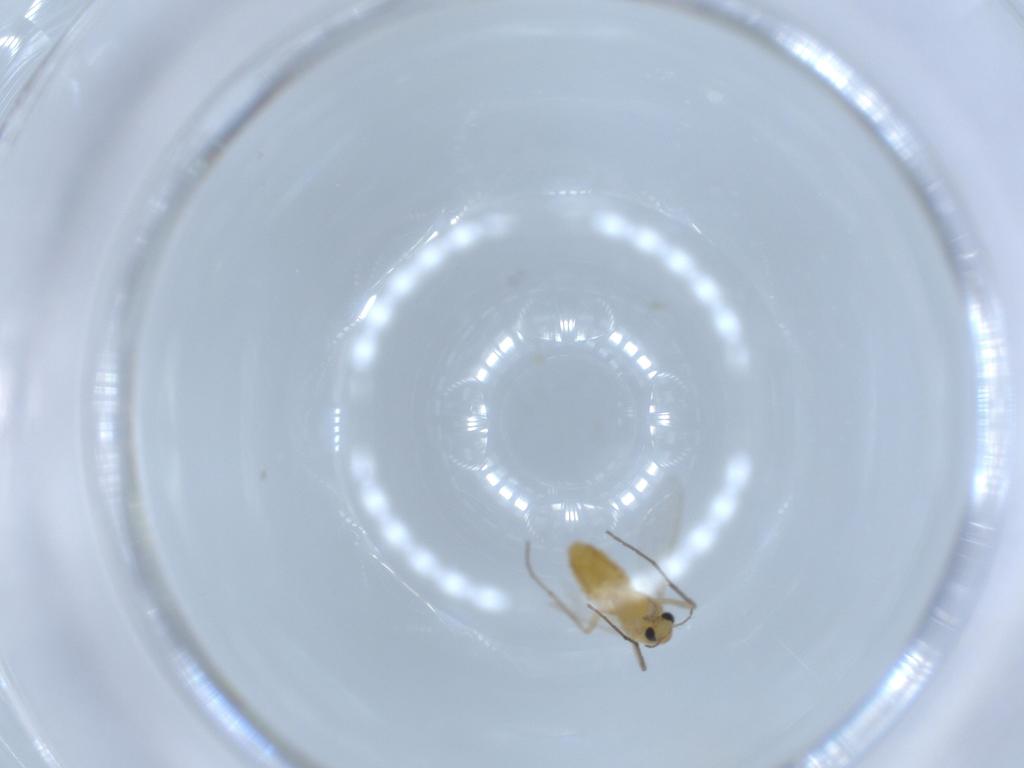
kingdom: Animalia
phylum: Arthropoda
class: Insecta
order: Diptera
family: Chironomidae
